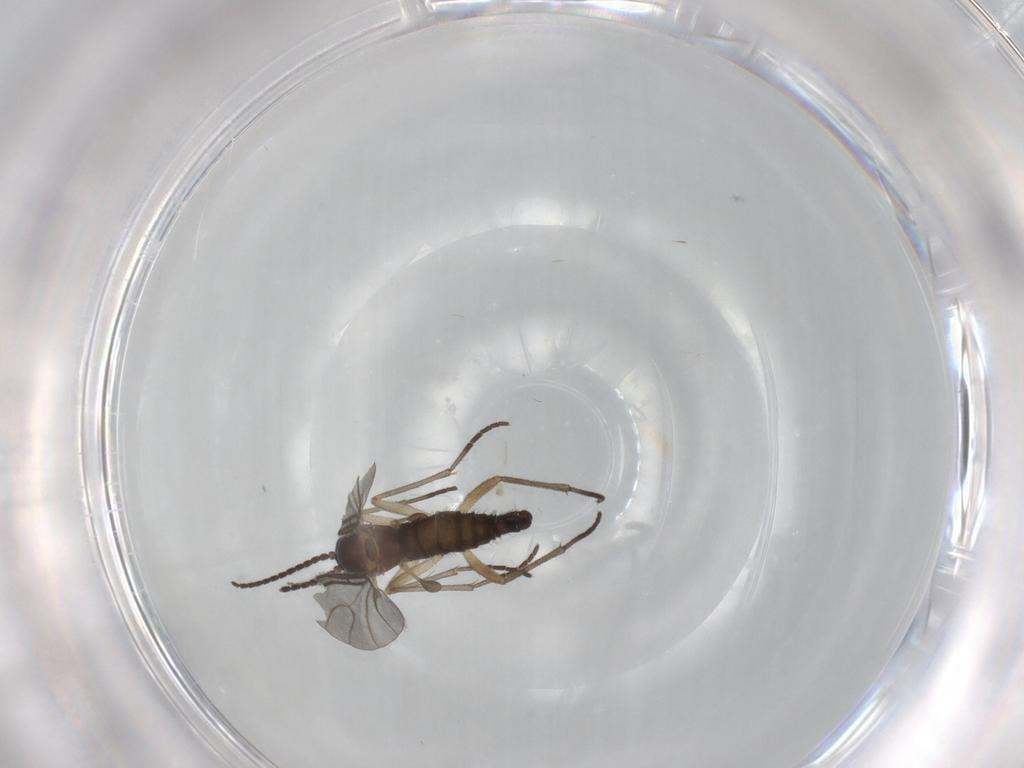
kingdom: Animalia
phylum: Arthropoda
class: Insecta
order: Diptera
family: Sciaridae
